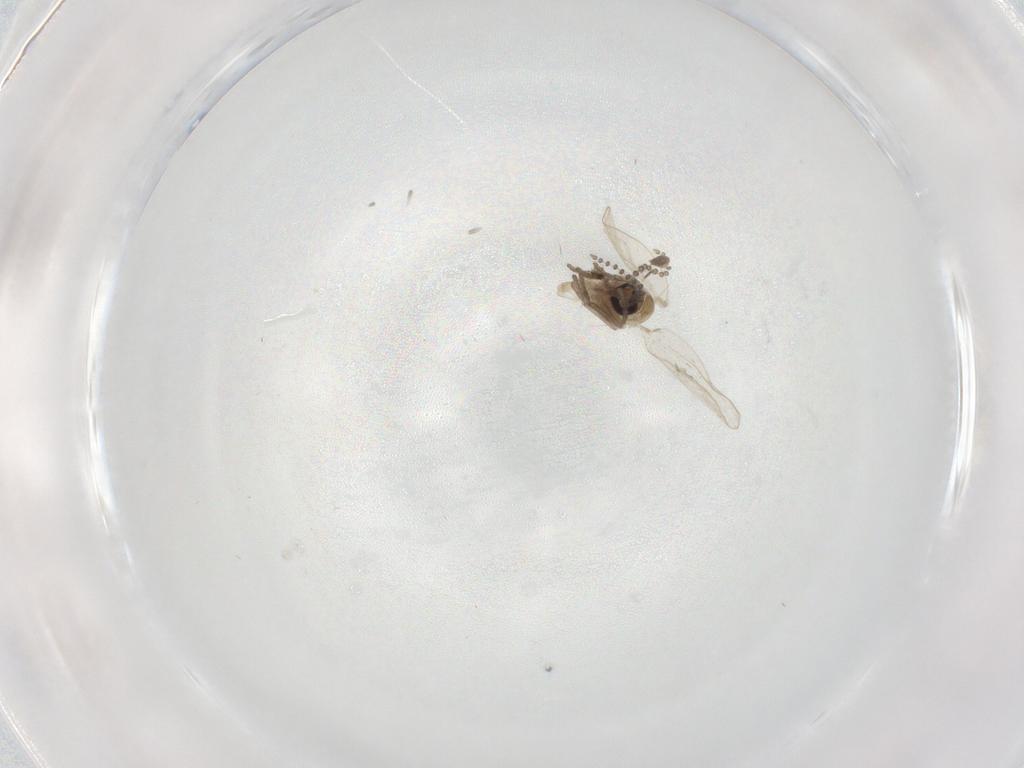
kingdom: Animalia
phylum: Arthropoda
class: Insecta
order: Diptera
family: Psychodidae
